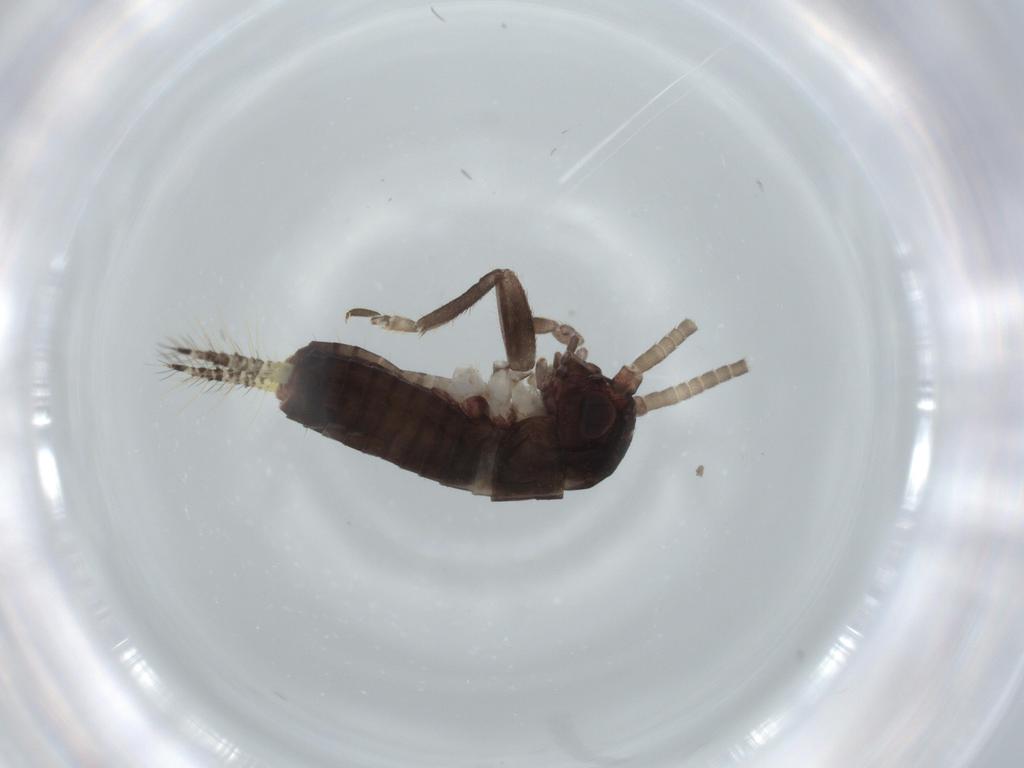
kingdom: Animalia
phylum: Arthropoda
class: Insecta
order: Orthoptera
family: Gryllidae
